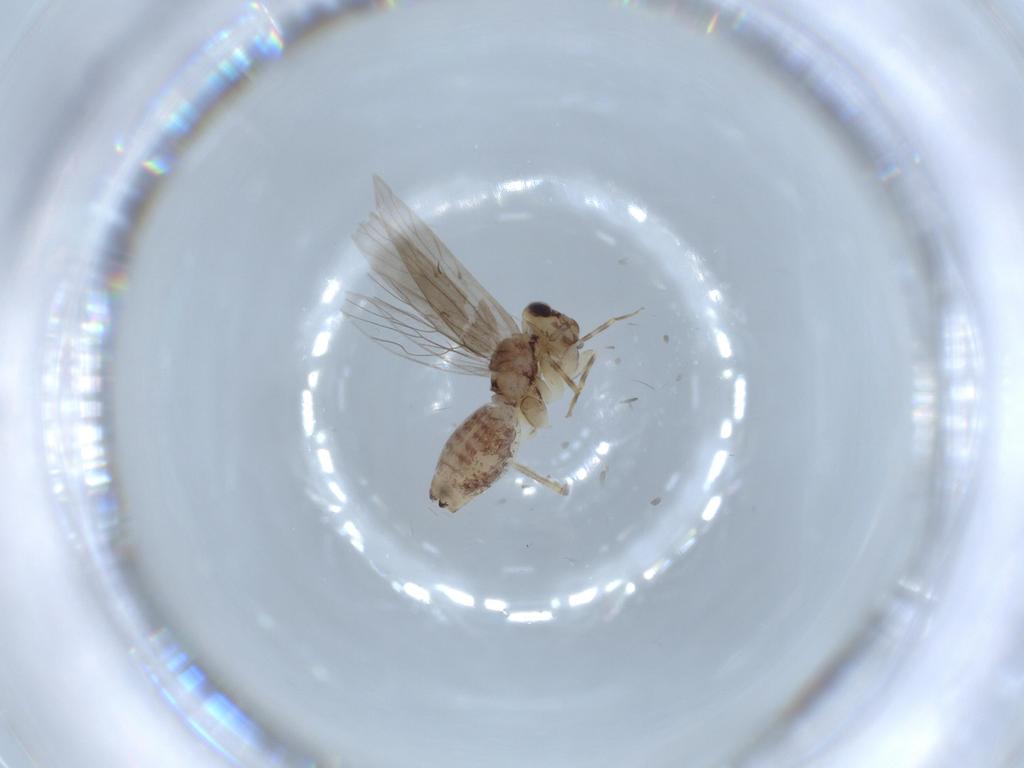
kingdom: Animalia
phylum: Arthropoda
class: Insecta
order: Psocodea
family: Lepidopsocidae
